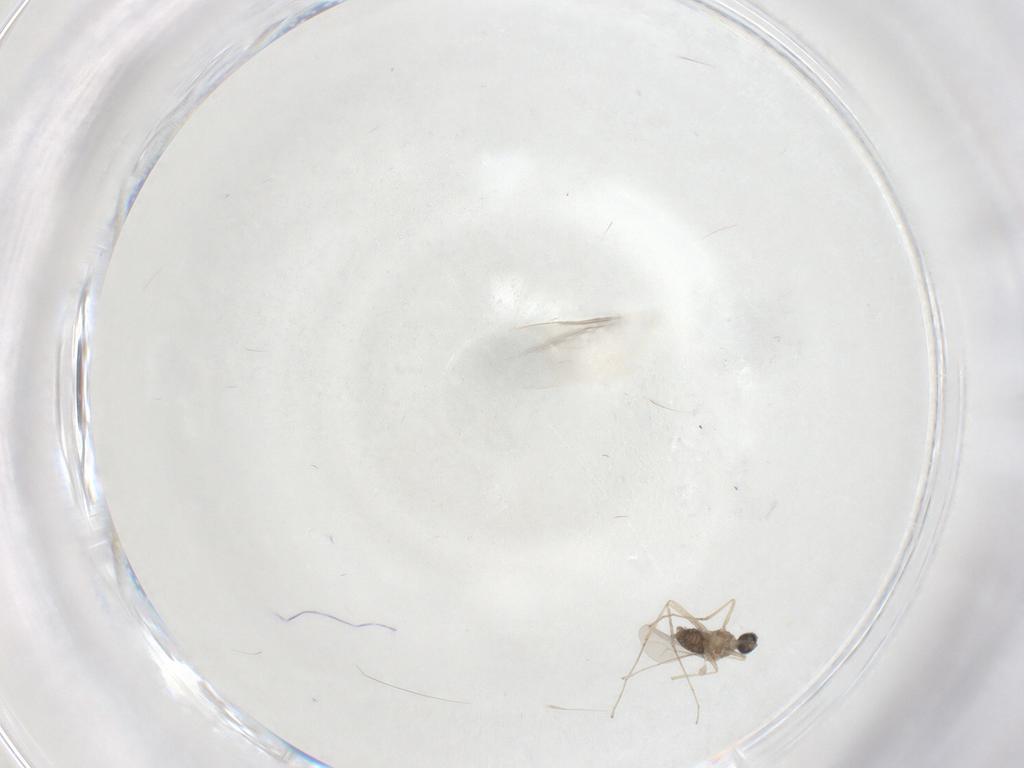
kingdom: Animalia
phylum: Arthropoda
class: Insecta
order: Diptera
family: Cecidomyiidae
